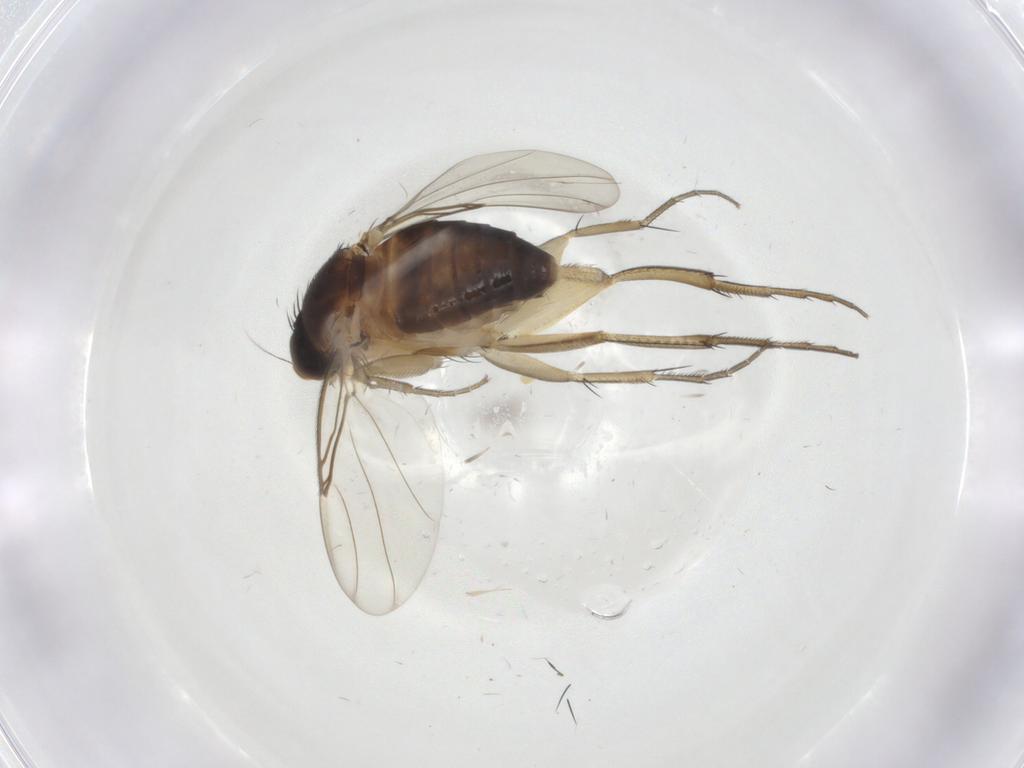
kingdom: Animalia
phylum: Arthropoda
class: Insecta
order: Diptera
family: Phoridae
